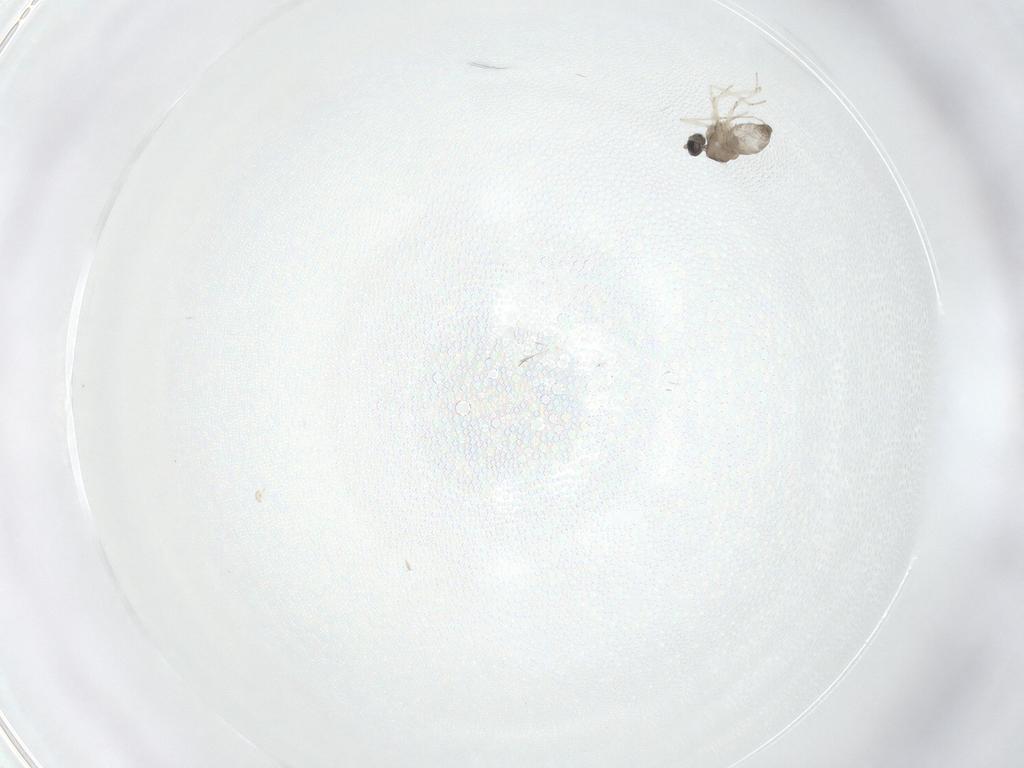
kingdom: Animalia
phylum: Arthropoda
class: Insecta
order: Diptera
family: Cecidomyiidae
